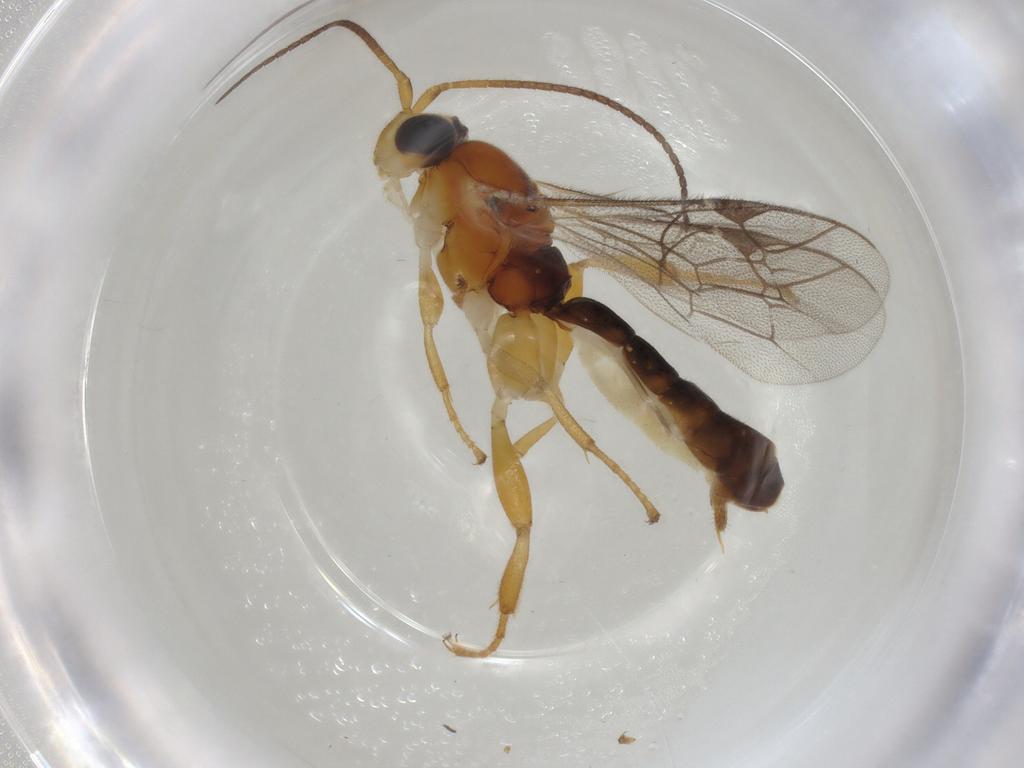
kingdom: Animalia
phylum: Arthropoda
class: Insecta
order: Hymenoptera
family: Ichneumonidae
